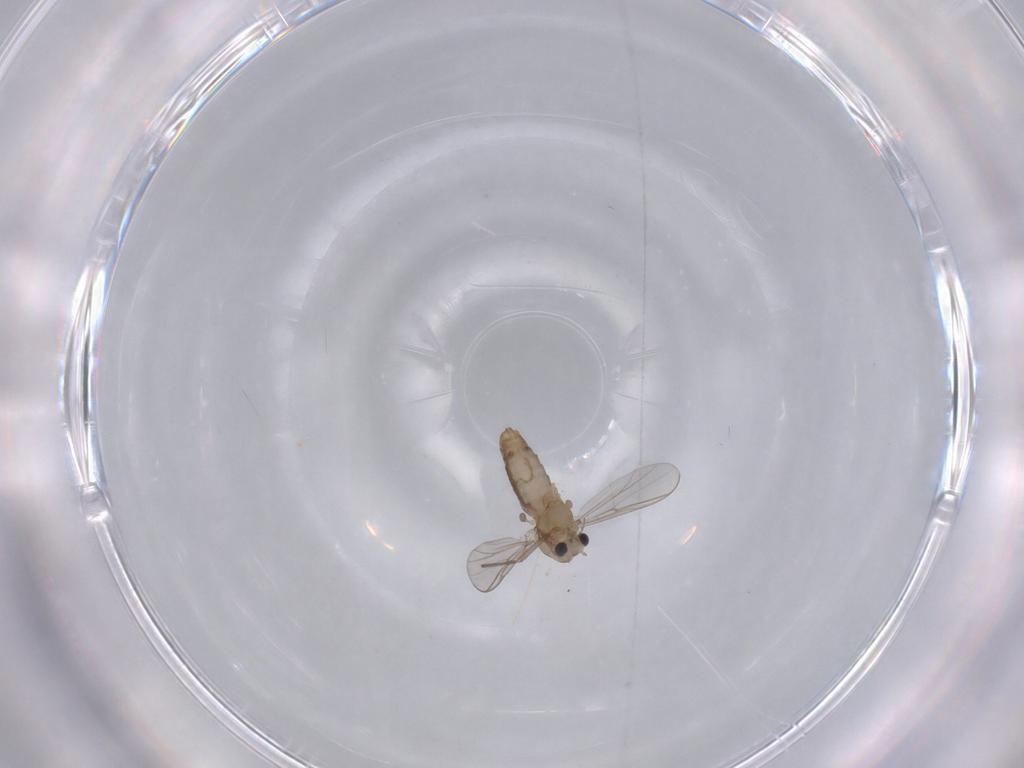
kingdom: Animalia
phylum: Arthropoda
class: Insecta
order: Diptera
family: Chironomidae
